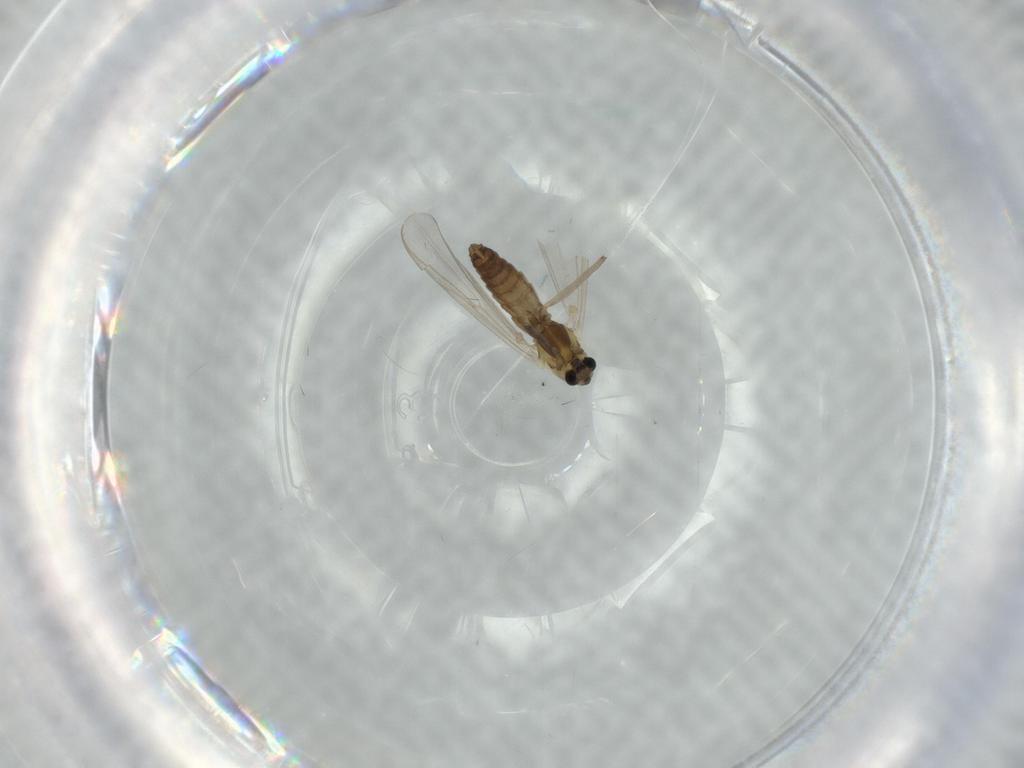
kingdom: Animalia
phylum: Arthropoda
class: Insecta
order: Diptera
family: Chironomidae
